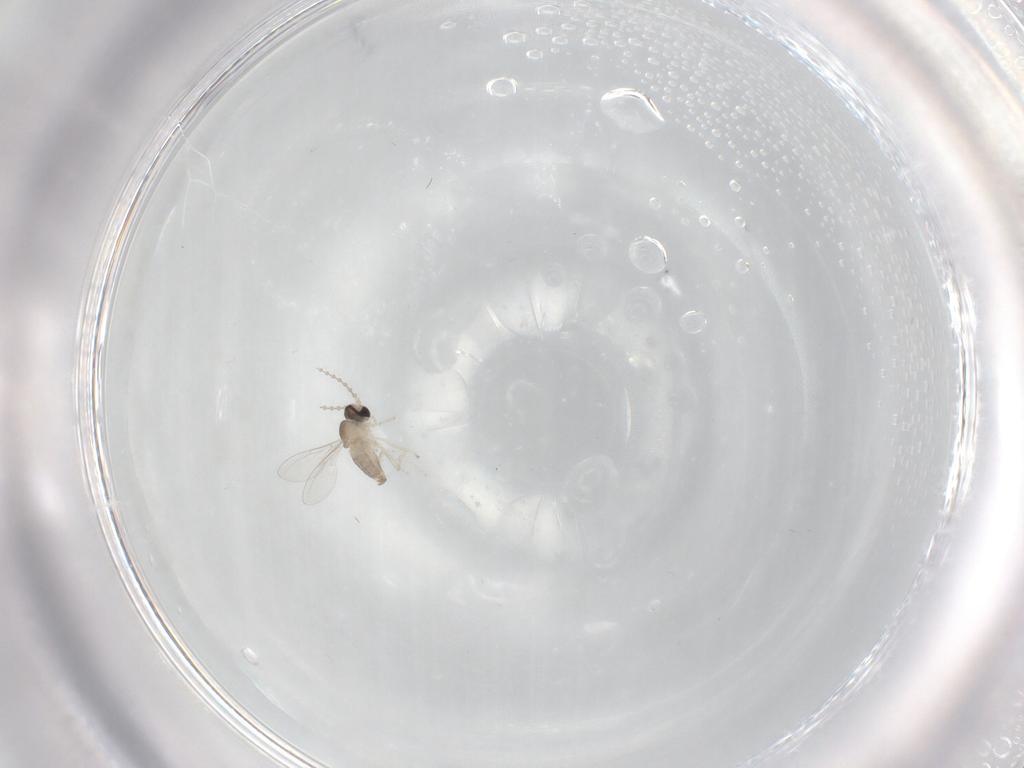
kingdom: Animalia
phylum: Arthropoda
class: Insecta
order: Diptera
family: Cecidomyiidae
